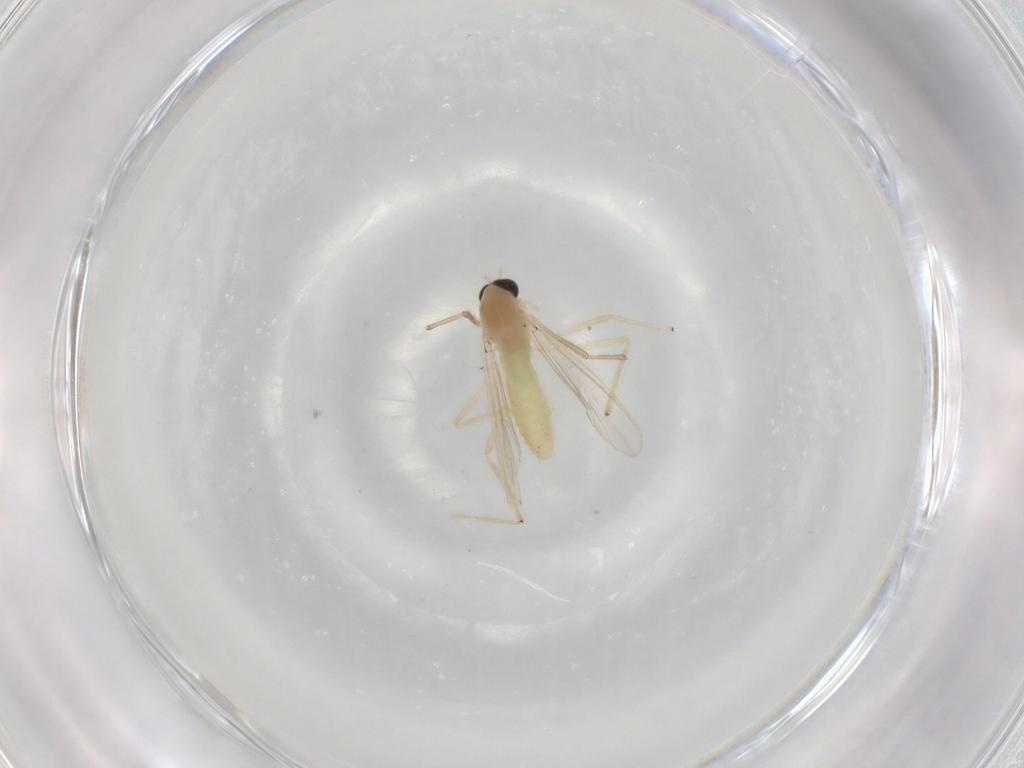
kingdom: Animalia
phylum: Arthropoda
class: Insecta
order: Diptera
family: Chironomidae
